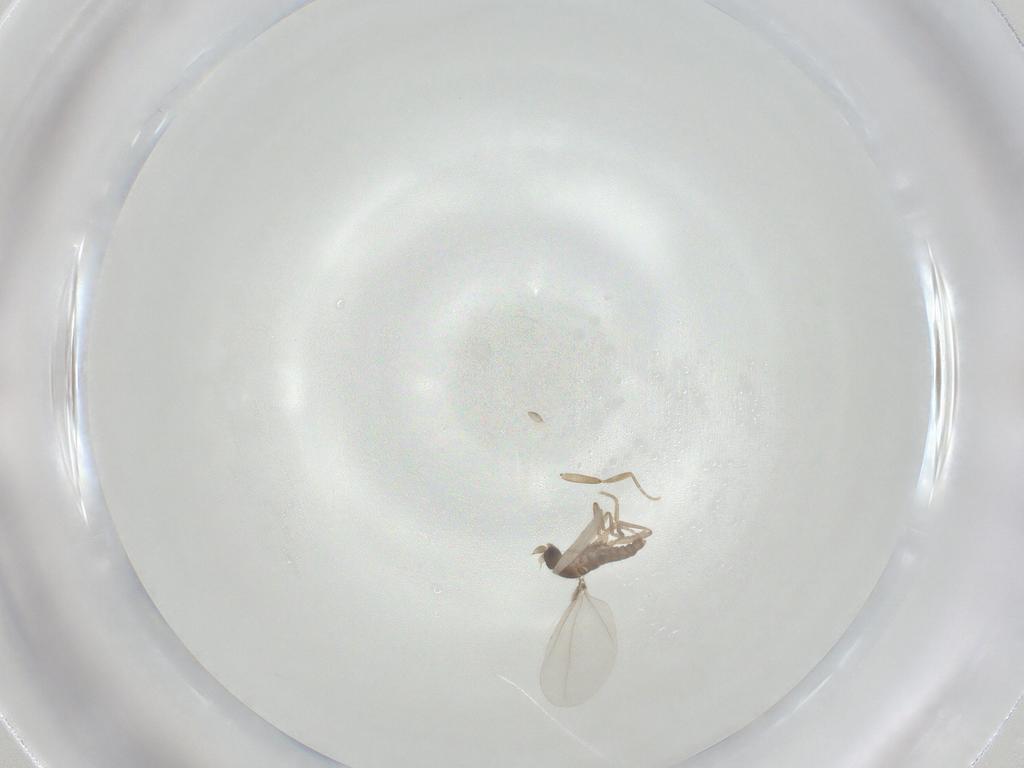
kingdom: Animalia
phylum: Arthropoda
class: Insecta
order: Diptera
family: Phoridae
